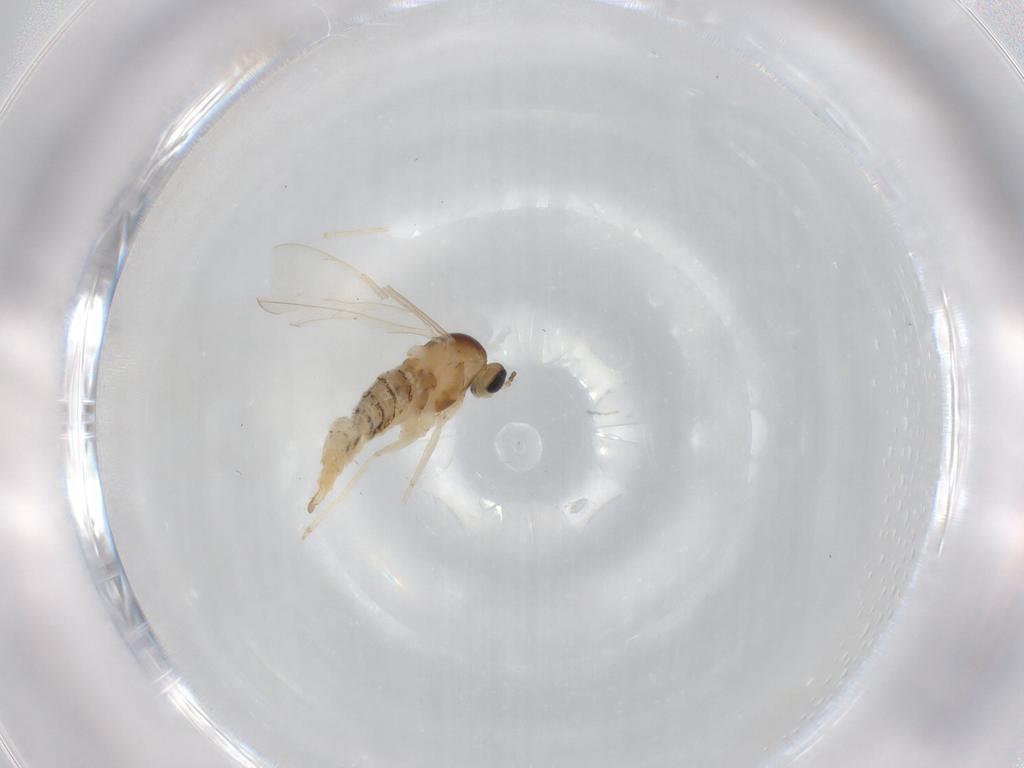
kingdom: Animalia
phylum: Arthropoda
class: Insecta
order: Diptera
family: Cecidomyiidae
